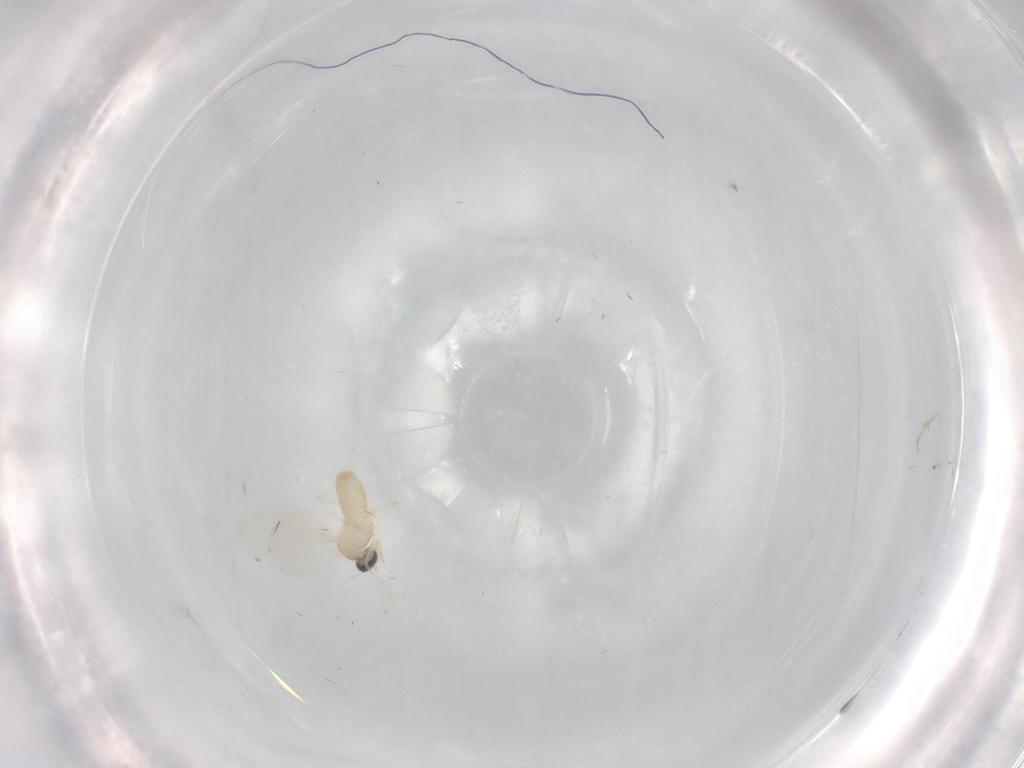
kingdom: Animalia
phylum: Arthropoda
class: Insecta
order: Diptera
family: Cecidomyiidae
